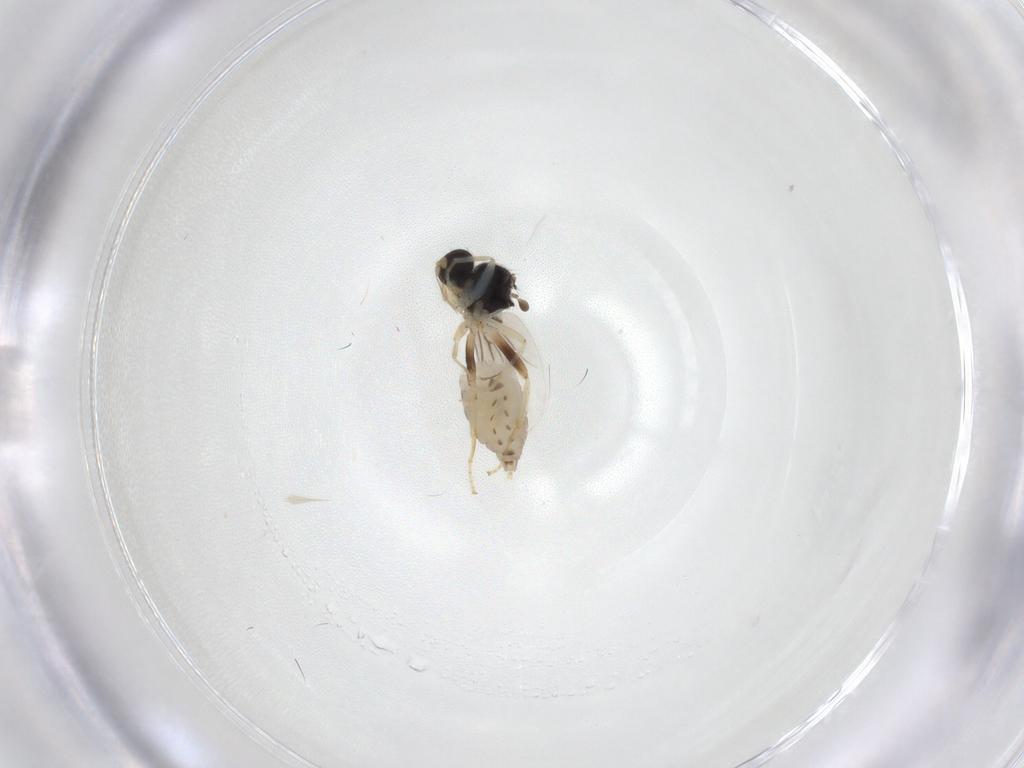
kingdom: Animalia
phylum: Arthropoda
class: Insecta
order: Diptera
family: Hybotidae
